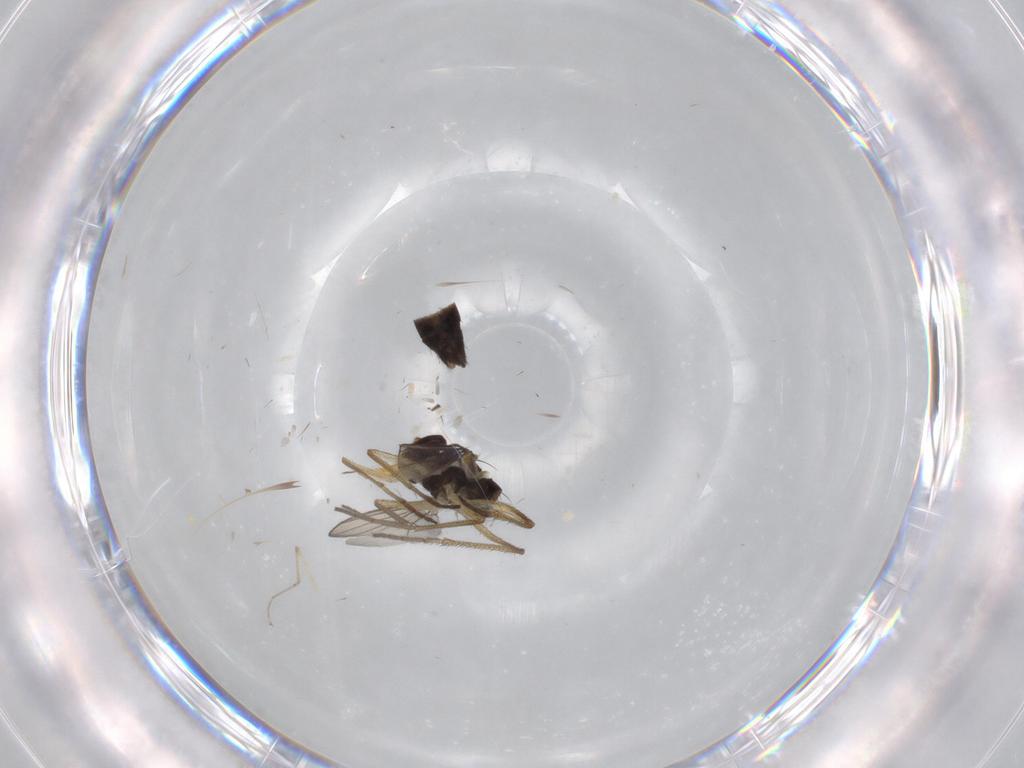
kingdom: Animalia
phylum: Arthropoda
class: Insecta
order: Diptera
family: Dolichopodidae
